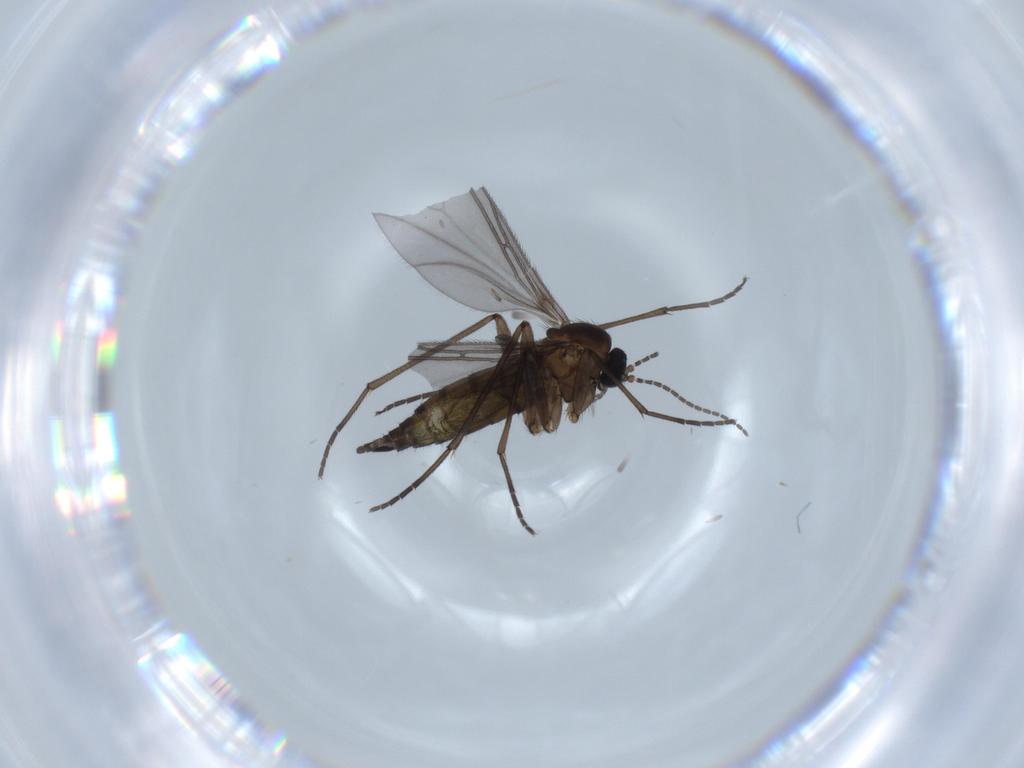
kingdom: Animalia
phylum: Arthropoda
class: Insecta
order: Diptera
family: Sciaridae
